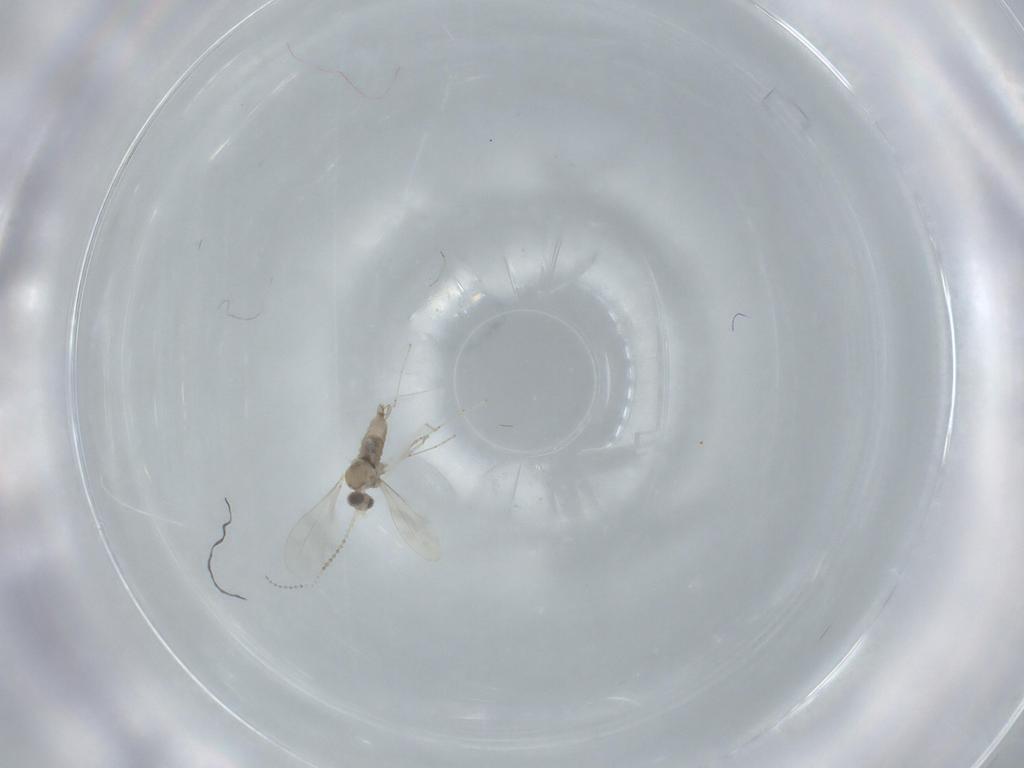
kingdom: Animalia
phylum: Arthropoda
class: Insecta
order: Diptera
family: Cecidomyiidae
